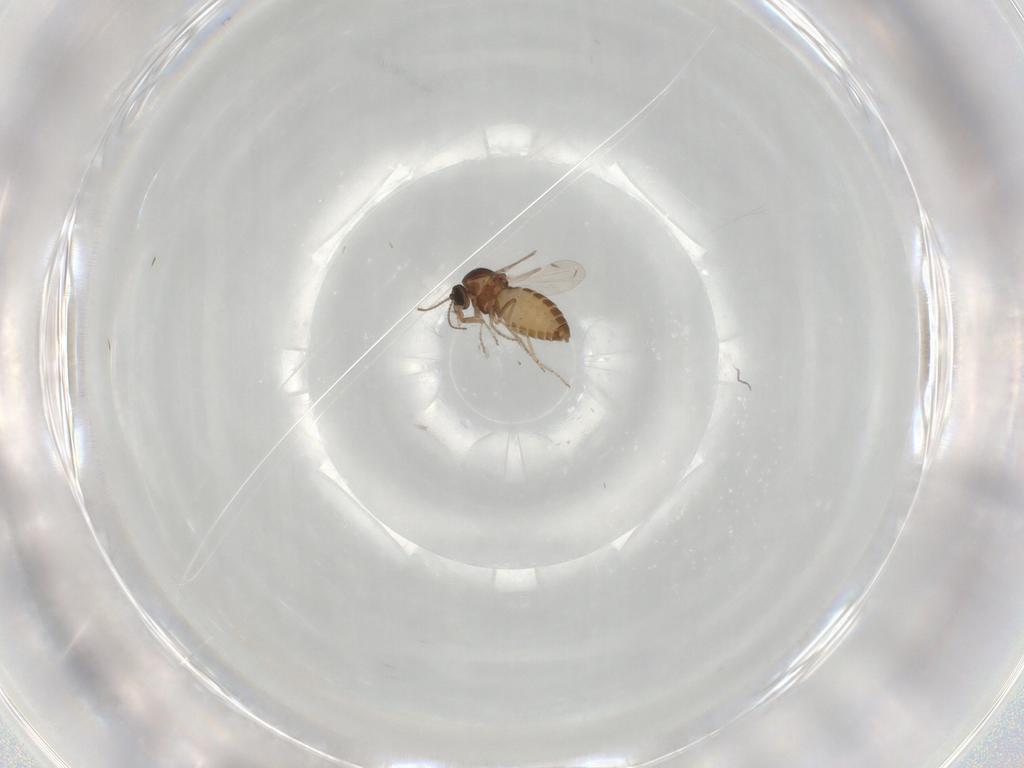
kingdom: Animalia
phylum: Arthropoda
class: Insecta
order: Diptera
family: Ceratopogonidae
